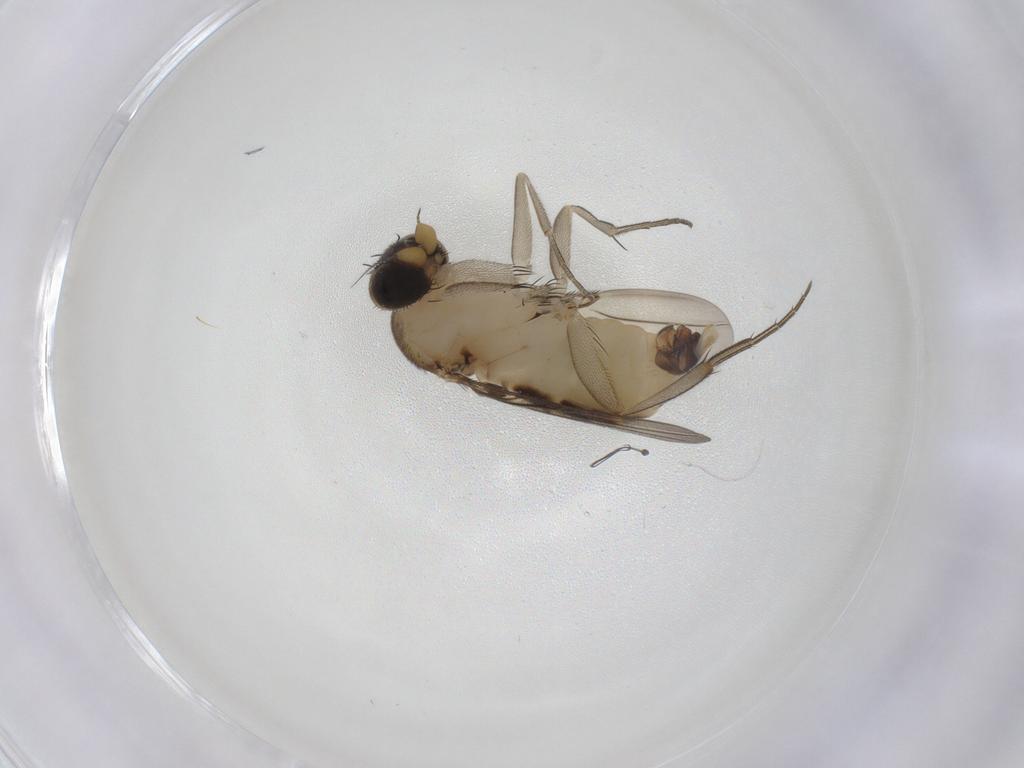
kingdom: Animalia
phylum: Arthropoda
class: Insecta
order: Diptera
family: Phoridae
